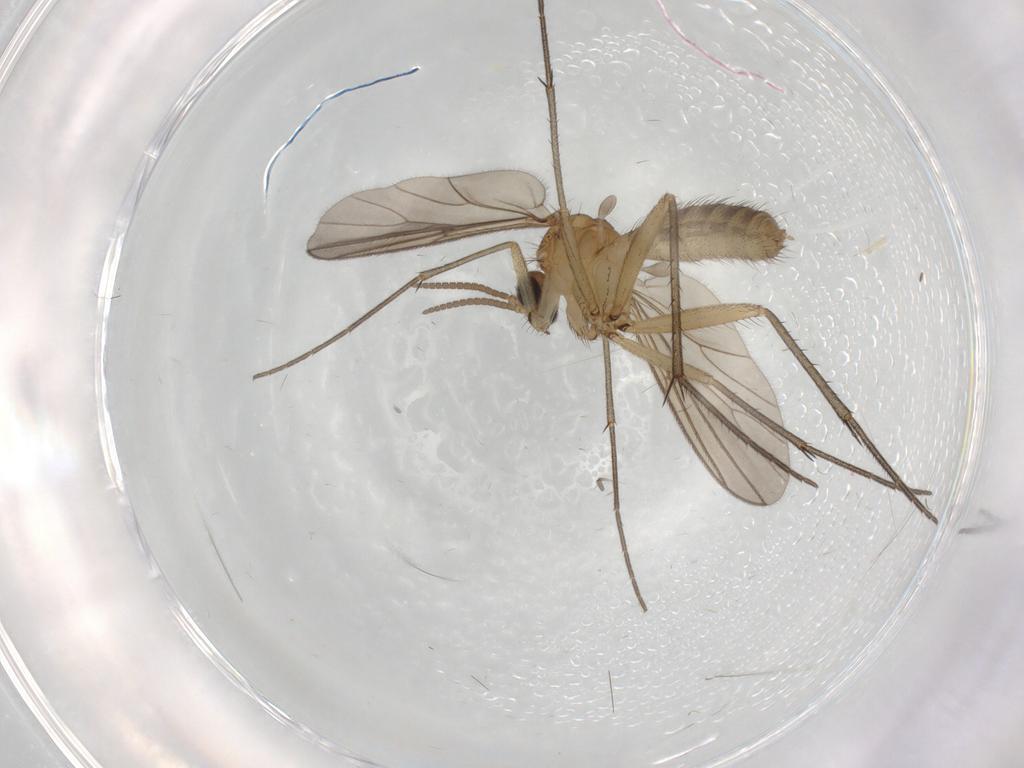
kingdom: Animalia
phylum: Arthropoda
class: Insecta
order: Diptera
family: Mycetophilidae
